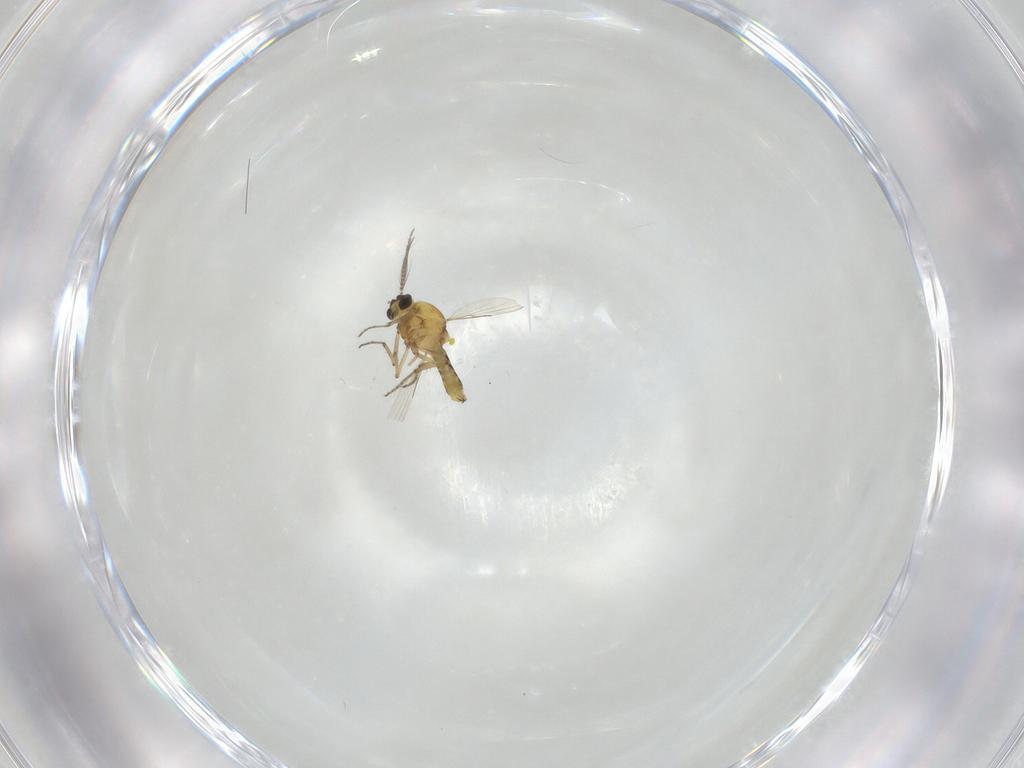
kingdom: Animalia
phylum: Arthropoda
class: Insecta
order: Diptera
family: Ceratopogonidae
